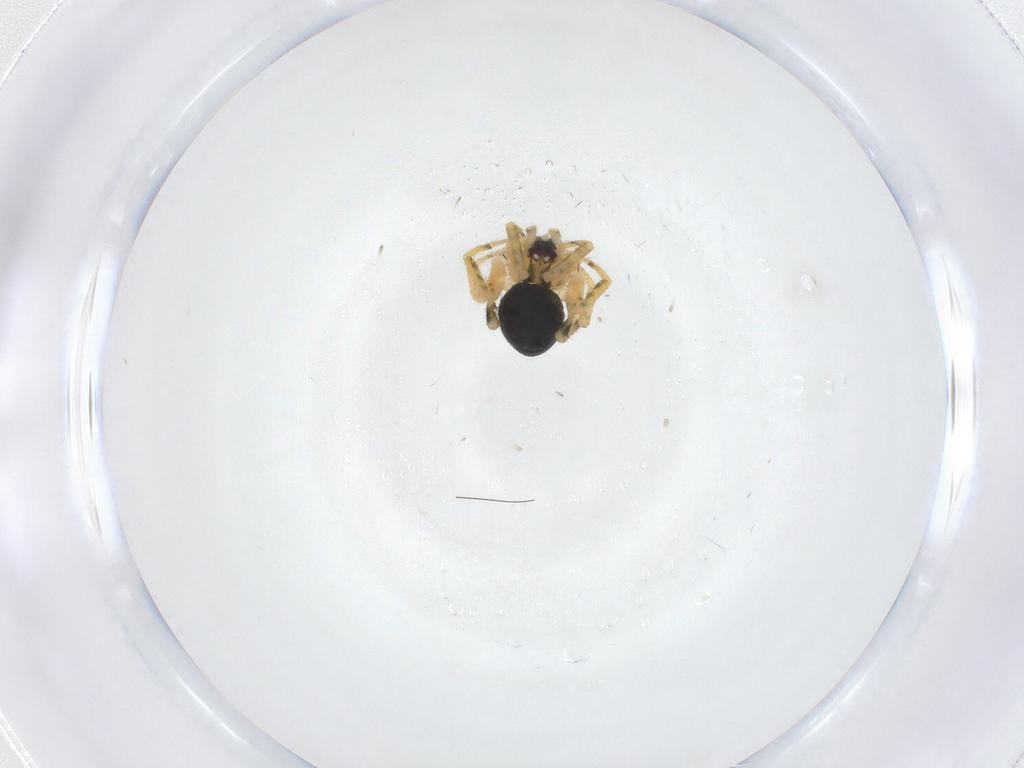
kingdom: Animalia
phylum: Arthropoda
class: Arachnida
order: Araneae
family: Theridiidae
